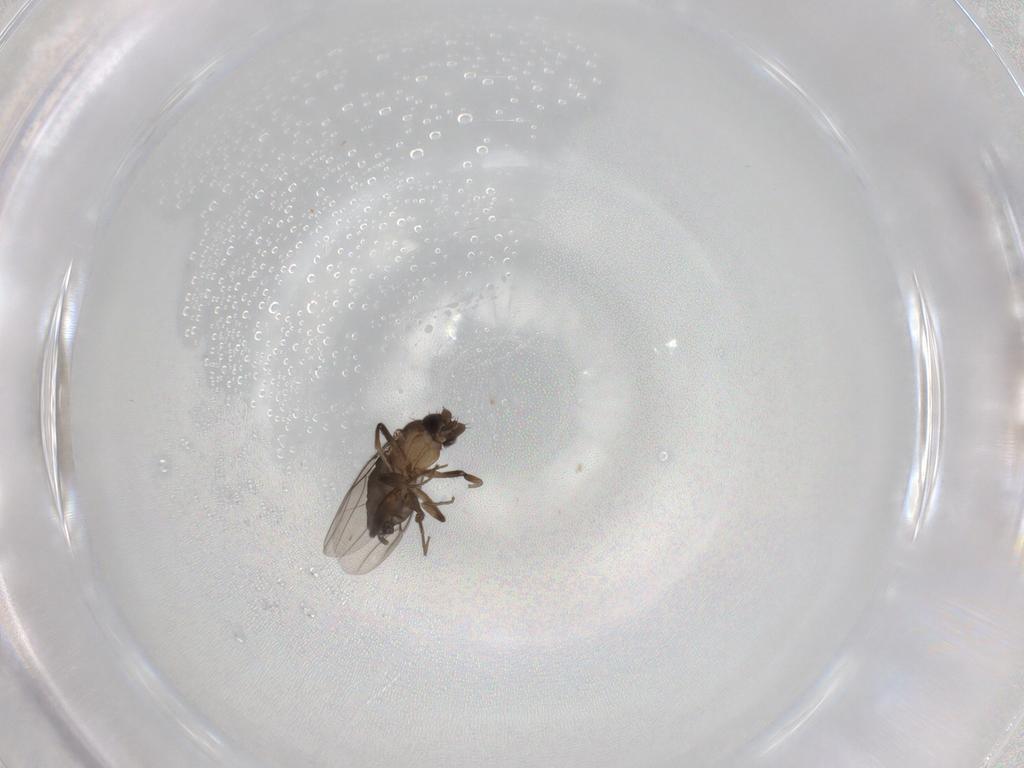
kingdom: Animalia
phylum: Arthropoda
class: Insecta
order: Diptera
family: Phoridae
